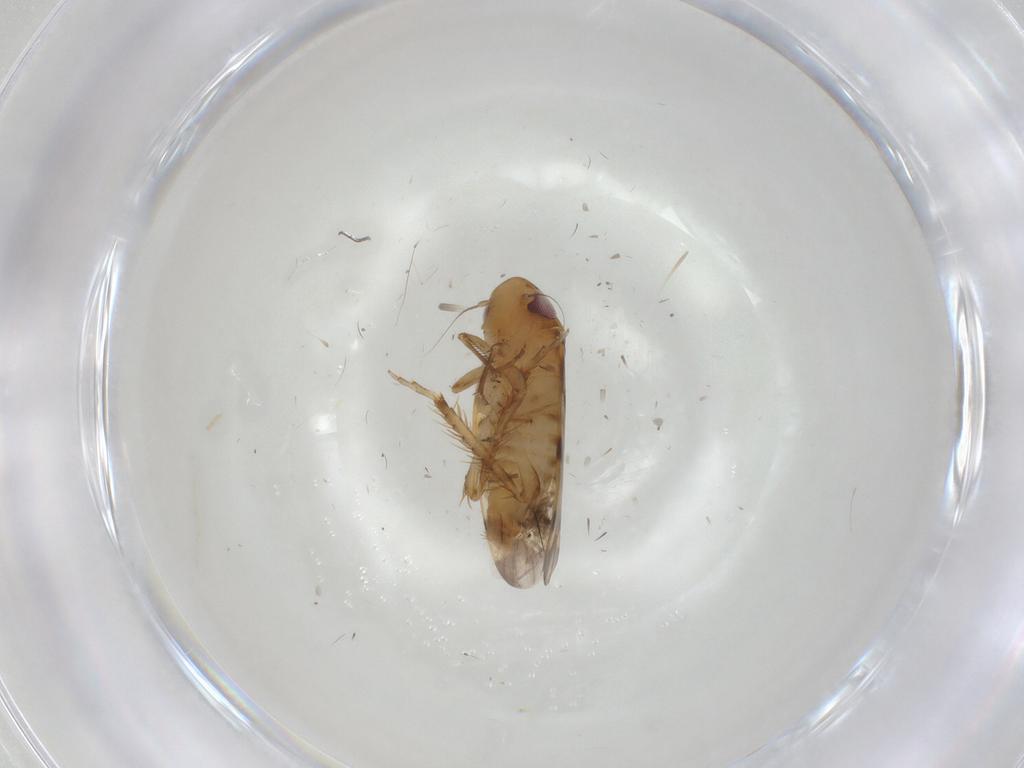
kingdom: Animalia
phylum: Arthropoda
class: Insecta
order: Hemiptera
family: Cicadellidae
